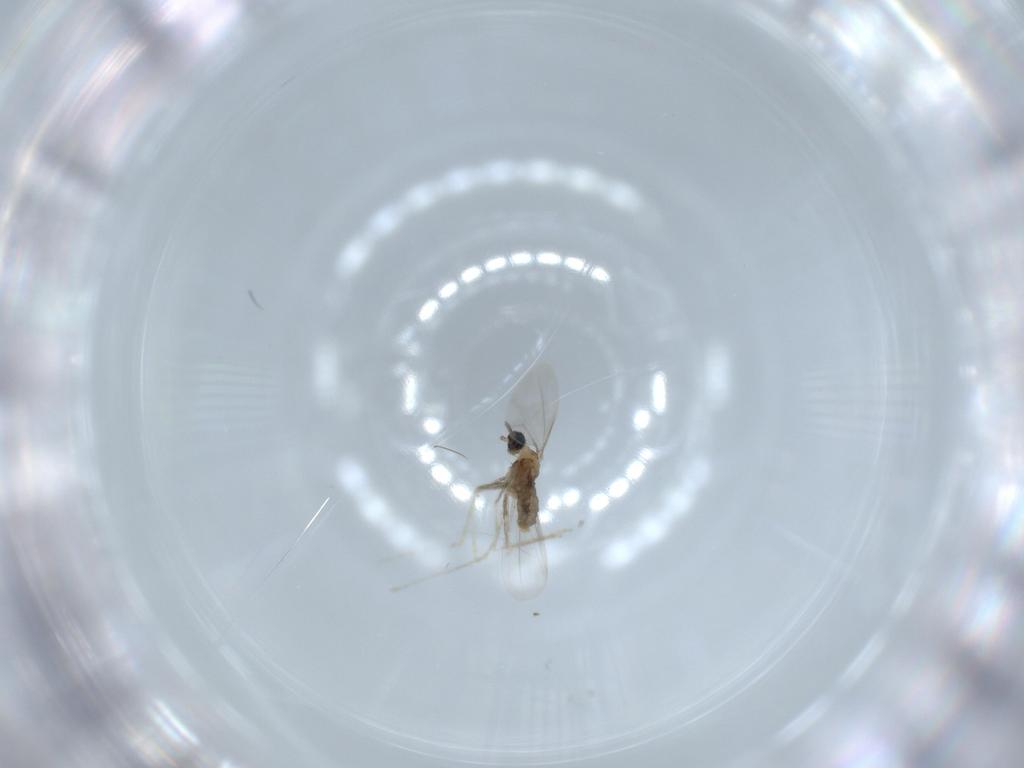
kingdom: Animalia
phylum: Arthropoda
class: Insecta
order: Diptera
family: Cecidomyiidae
